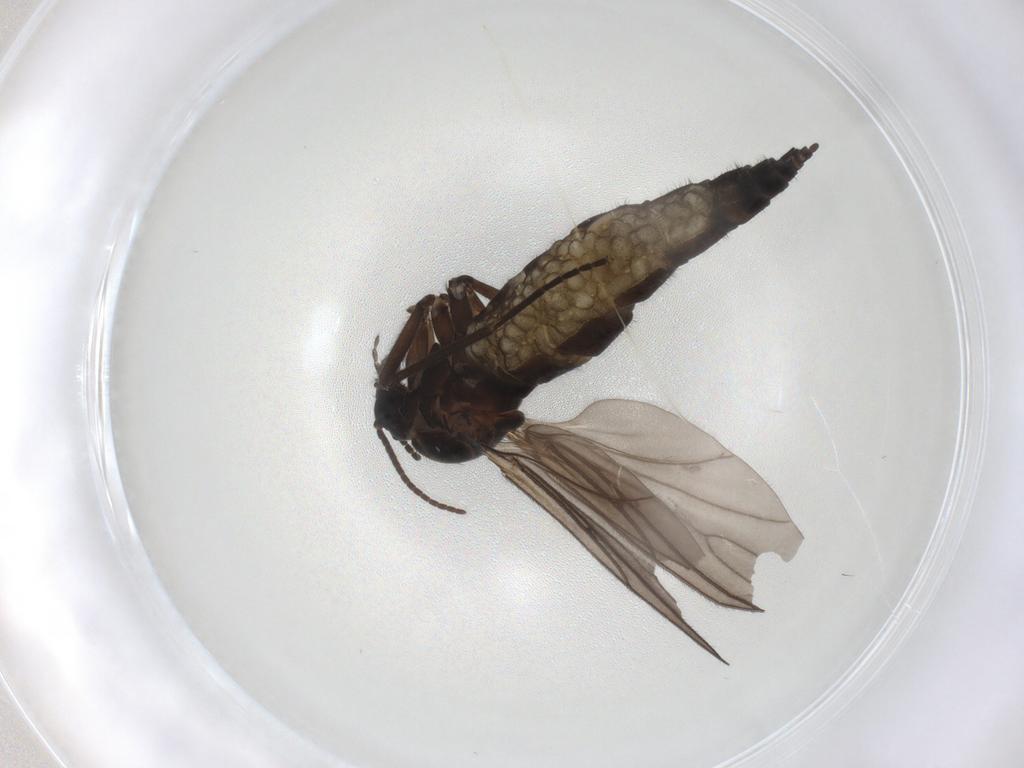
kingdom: Animalia
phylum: Arthropoda
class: Insecta
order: Diptera
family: Sciaridae
